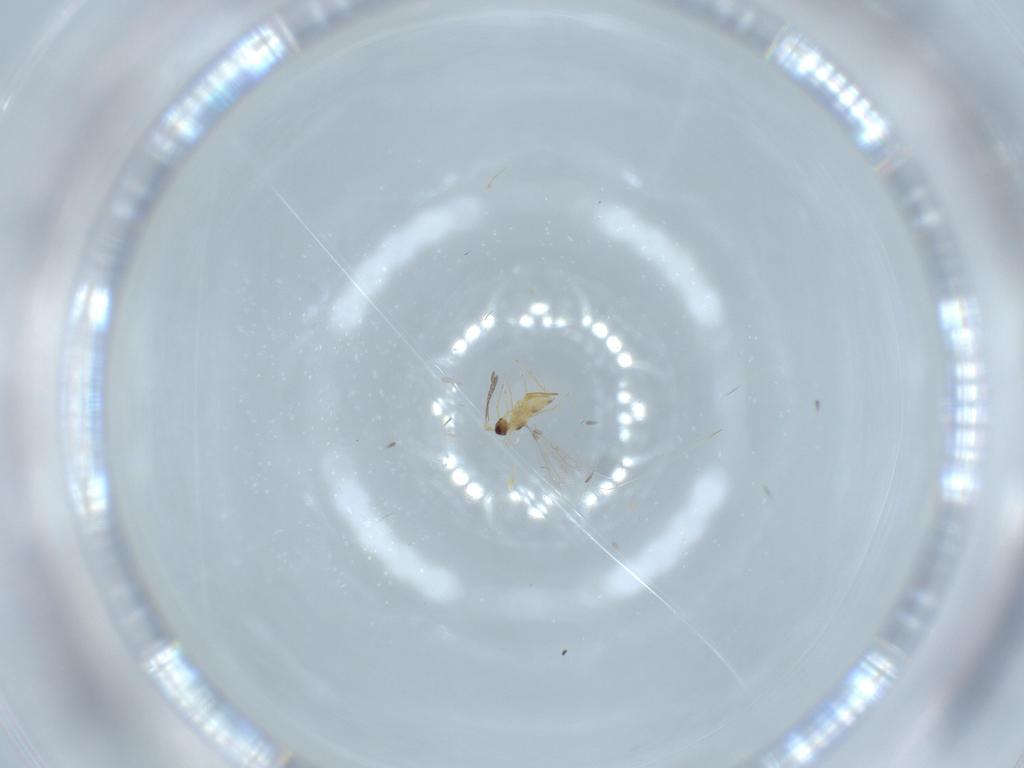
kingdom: Animalia
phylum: Arthropoda
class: Insecta
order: Hymenoptera
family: Mymaridae
